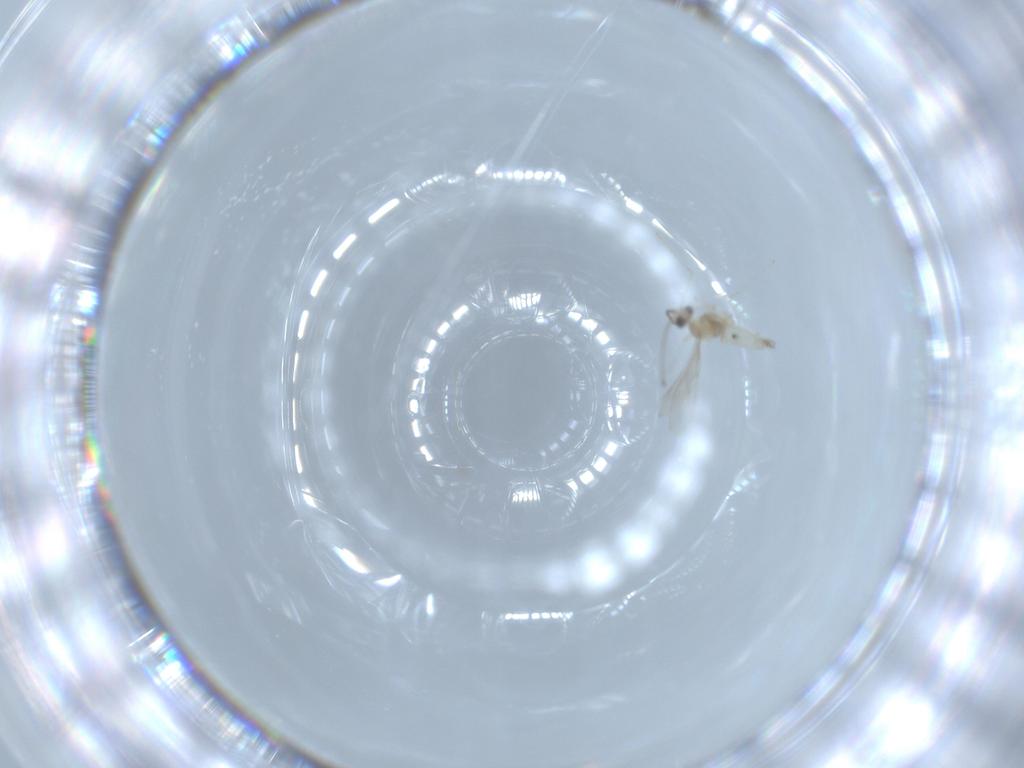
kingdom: Animalia
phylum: Arthropoda
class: Insecta
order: Diptera
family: Cecidomyiidae
